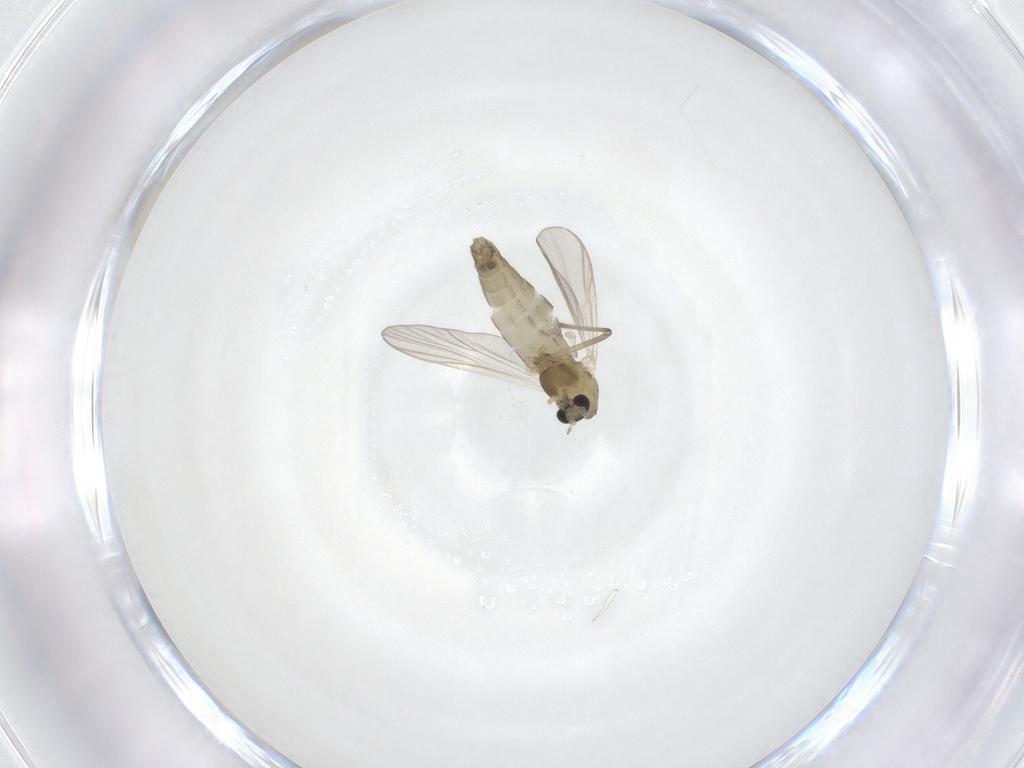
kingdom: Animalia
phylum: Arthropoda
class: Insecta
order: Diptera
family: Chironomidae
